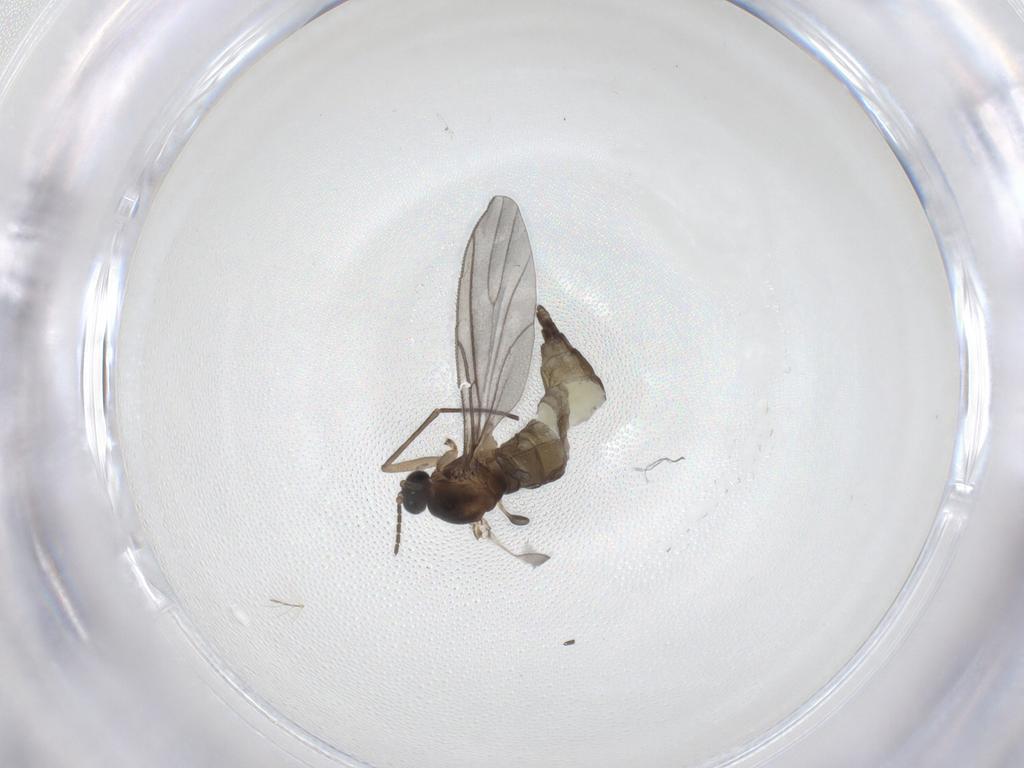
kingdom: Animalia
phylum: Arthropoda
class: Insecta
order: Diptera
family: Sciaridae
